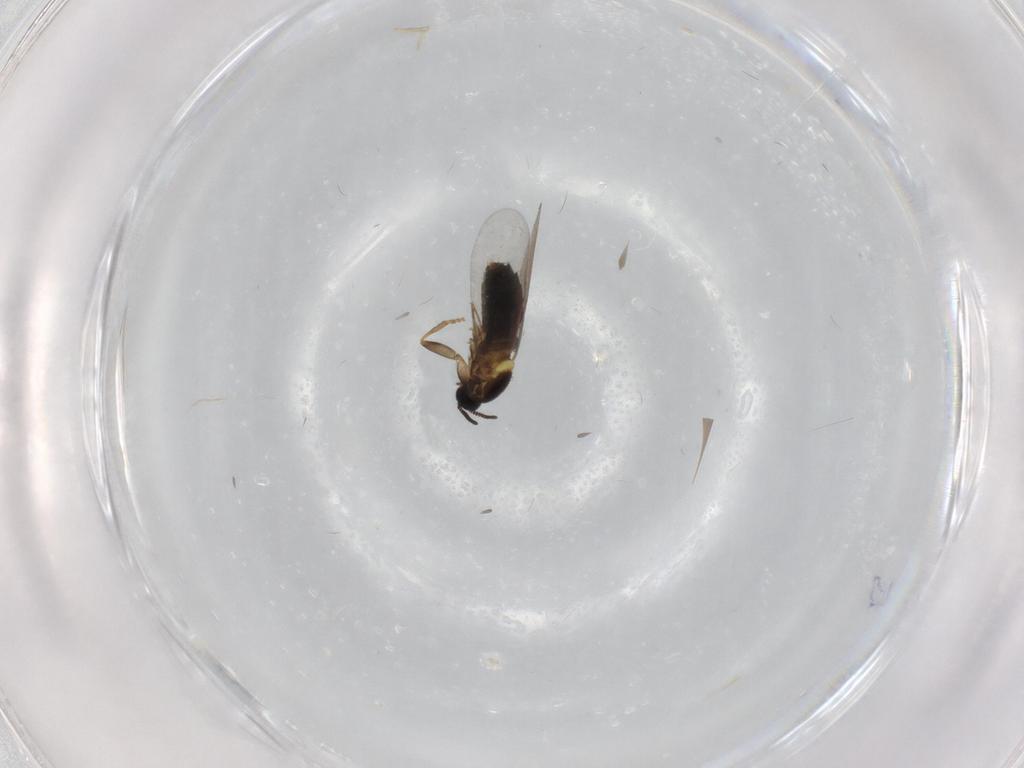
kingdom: Animalia
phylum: Arthropoda
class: Insecta
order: Diptera
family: Scatopsidae
